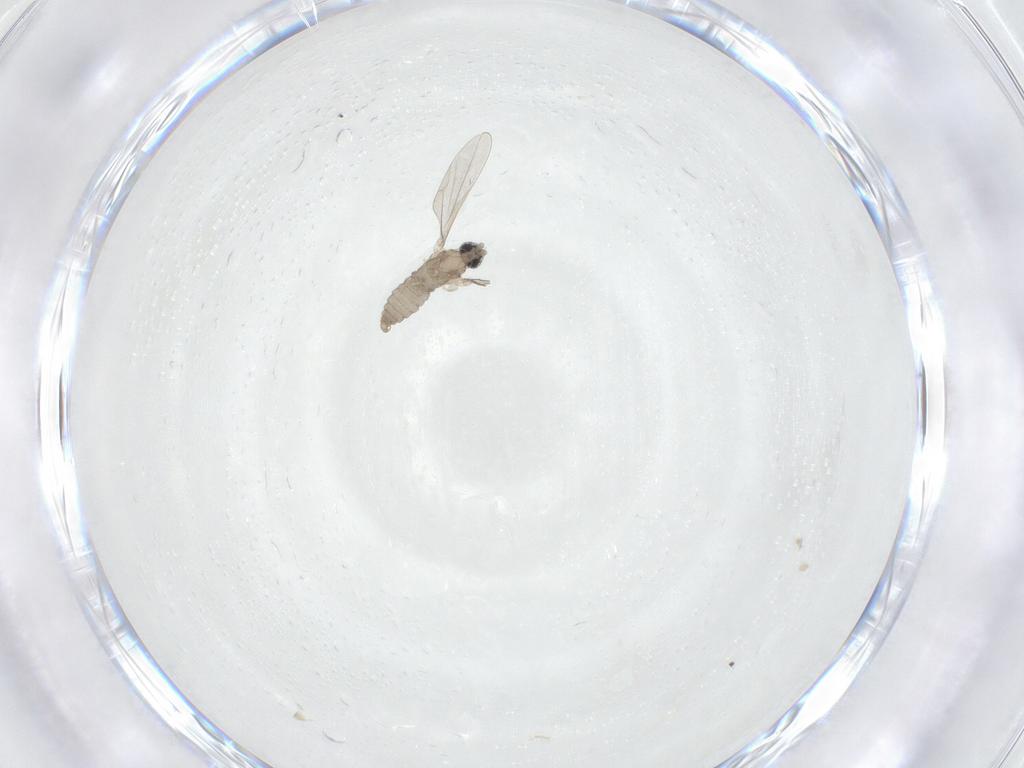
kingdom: Animalia
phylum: Arthropoda
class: Insecta
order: Diptera
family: Cecidomyiidae
